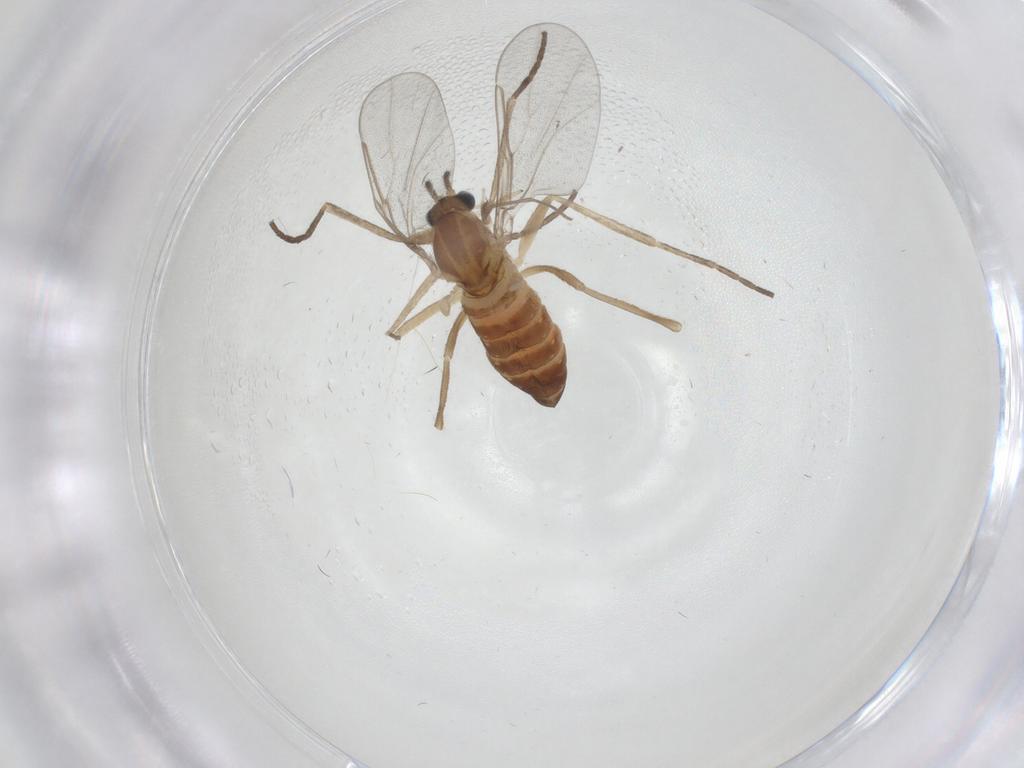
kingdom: Animalia
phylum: Arthropoda
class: Insecta
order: Diptera
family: Cecidomyiidae
